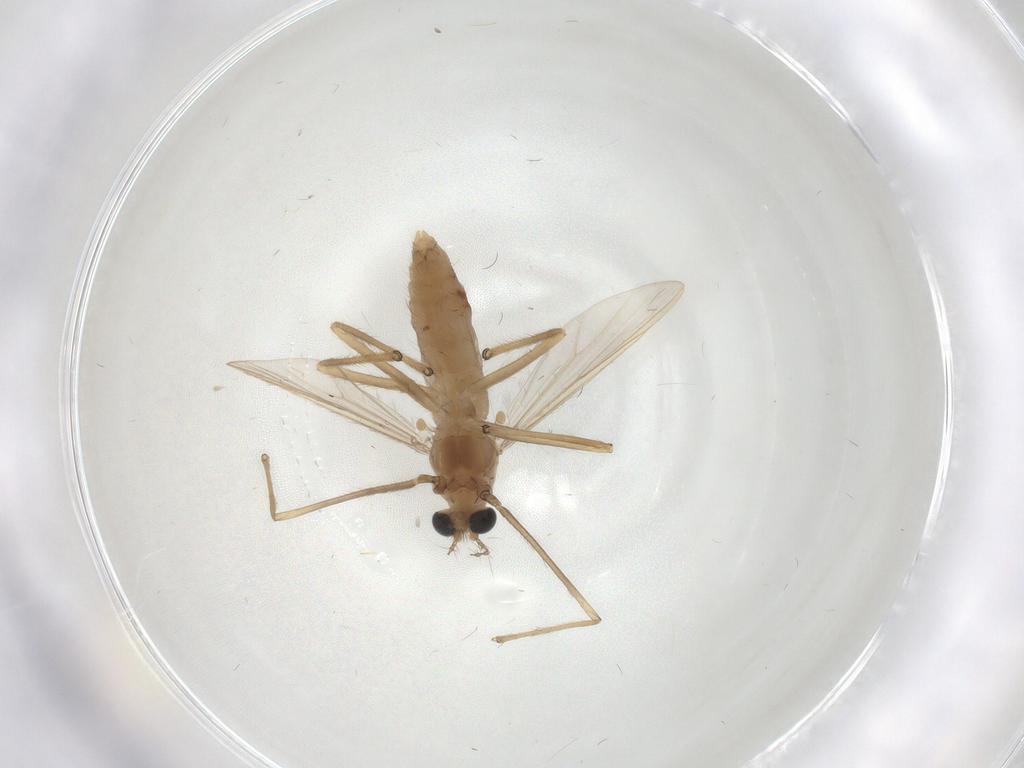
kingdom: Animalia
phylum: Arthropoda
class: Insecta
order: Diptera
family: Chironomidae
